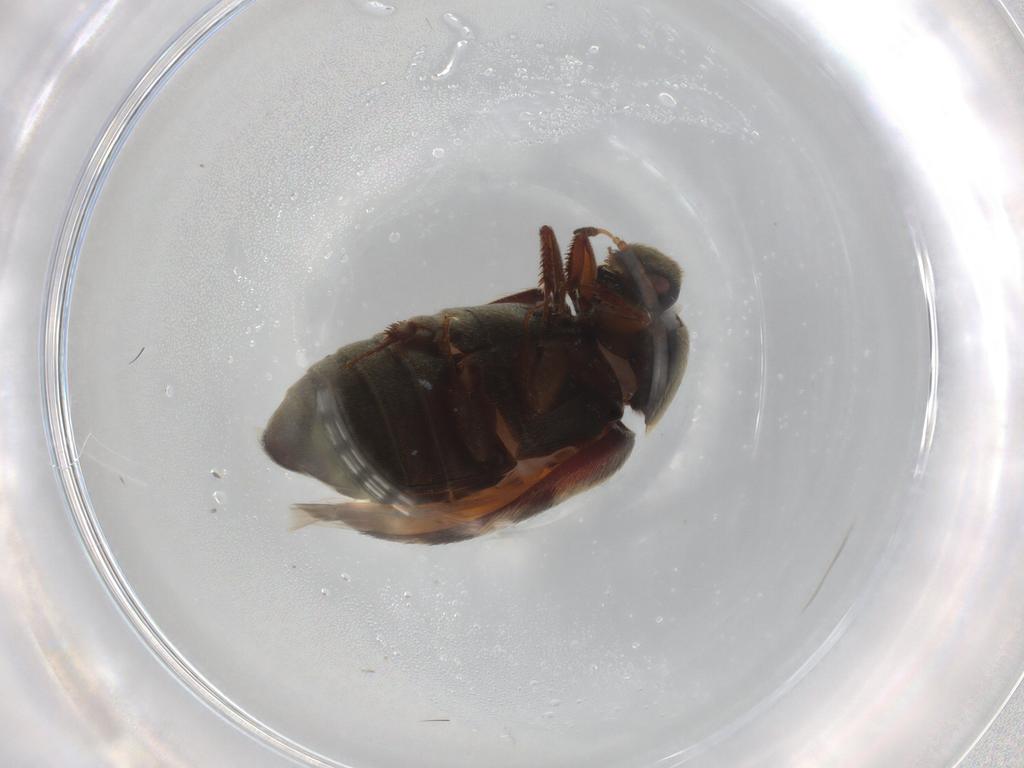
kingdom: Animalia
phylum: Arthropoda
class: Insecta
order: Coleoptera
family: Dermestidae
